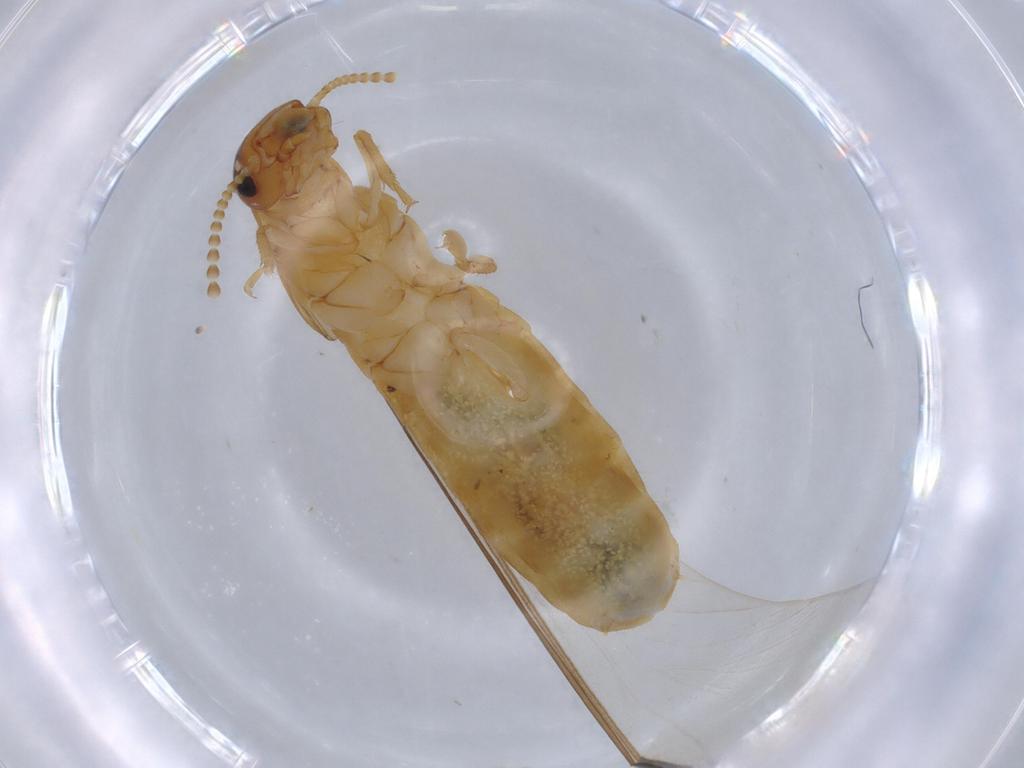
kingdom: Animalia
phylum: Arthropoda
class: Insecta
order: Blattodea
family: Kalotermitidae
